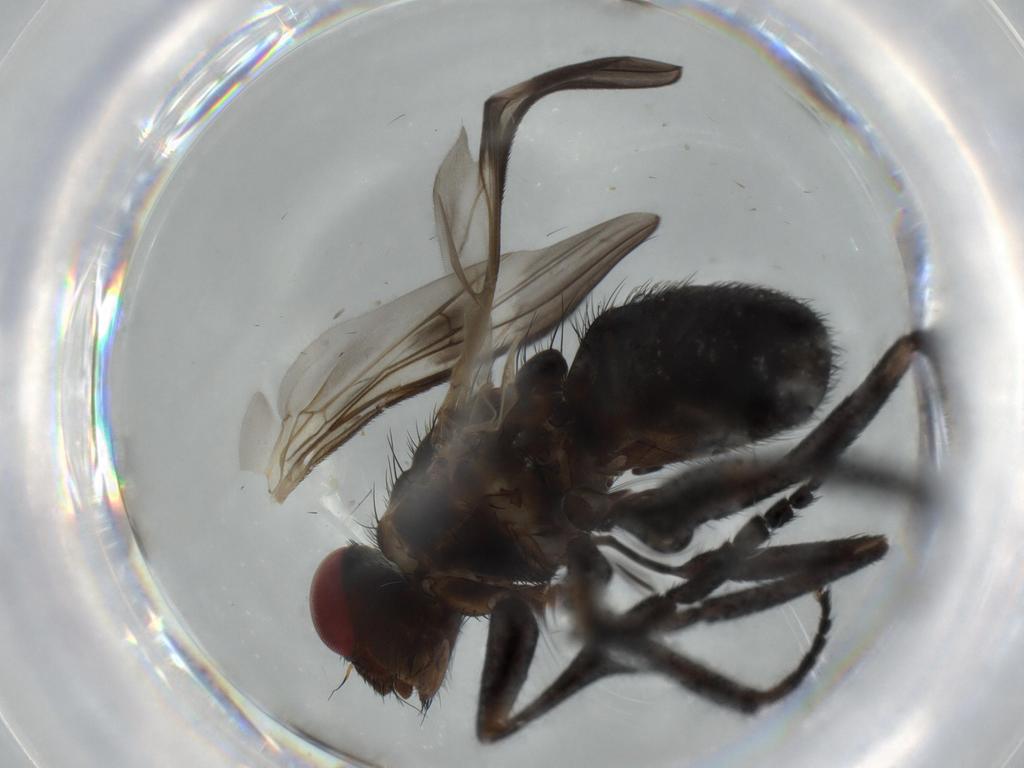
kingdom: Animalia
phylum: Arthropoda
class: Insecta
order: Diptera
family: Calliphoridae
